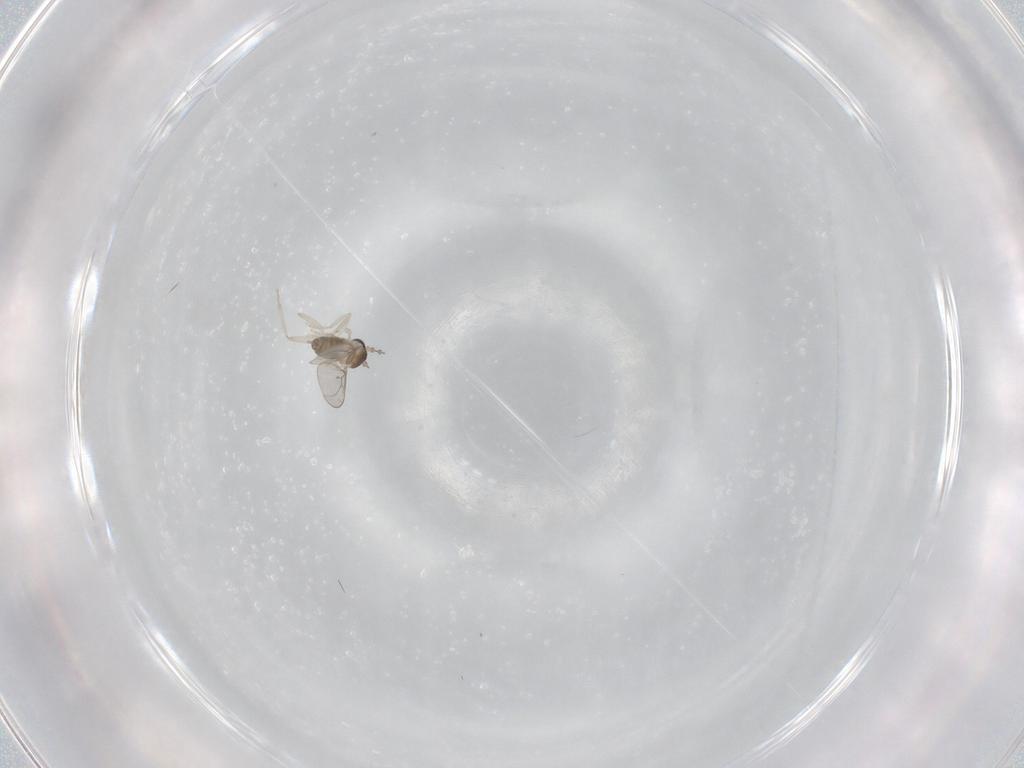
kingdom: Animalia
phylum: Arthropoda
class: Insecta
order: Diptera
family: Chironomidae
